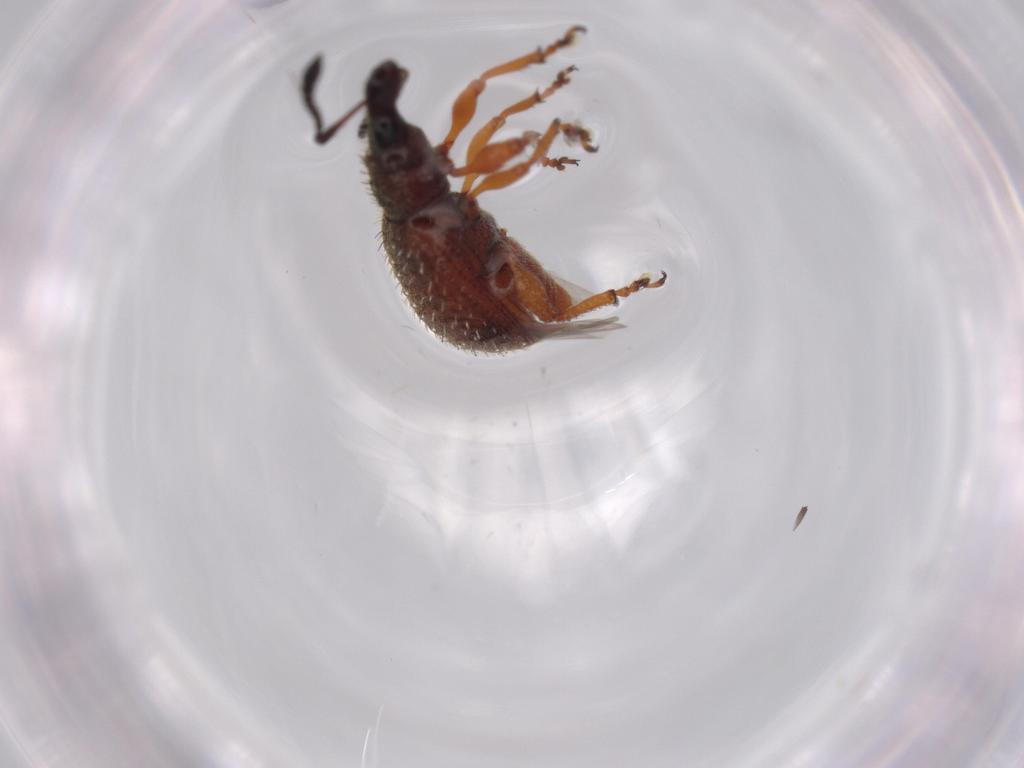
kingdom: Animalia
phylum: Arthropoda
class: Insecta
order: Coleoptera
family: Curculionidae
